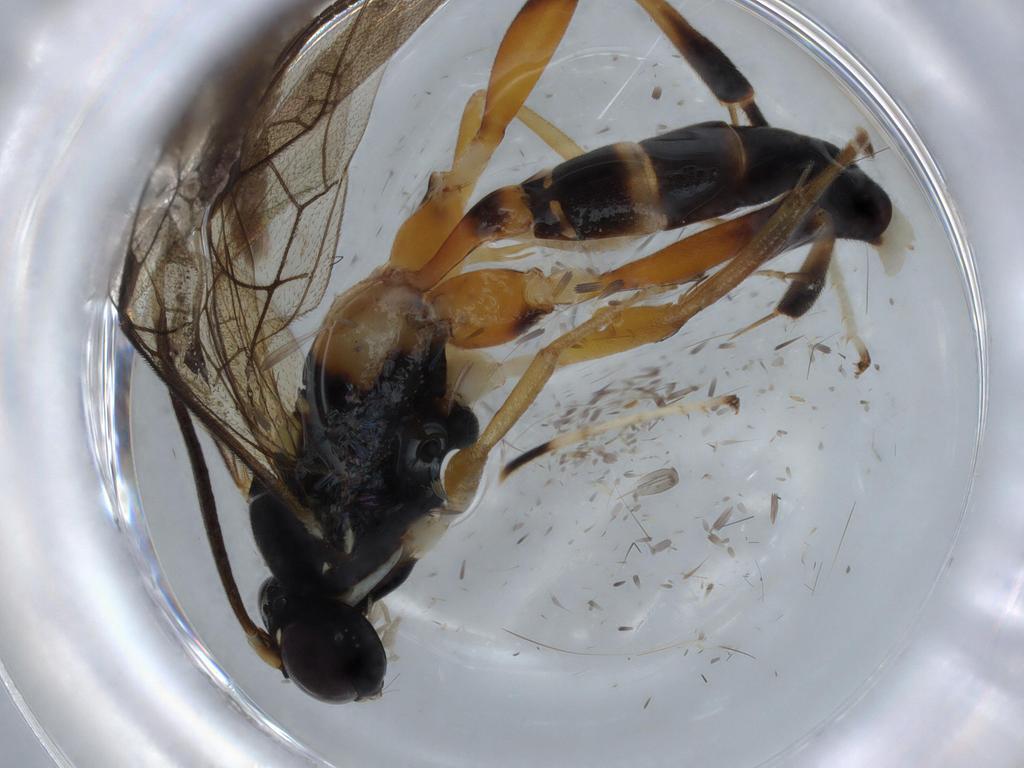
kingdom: Animalia
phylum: Arthropoda
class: Insecta
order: Hymenoptera
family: Ichneumonidae
